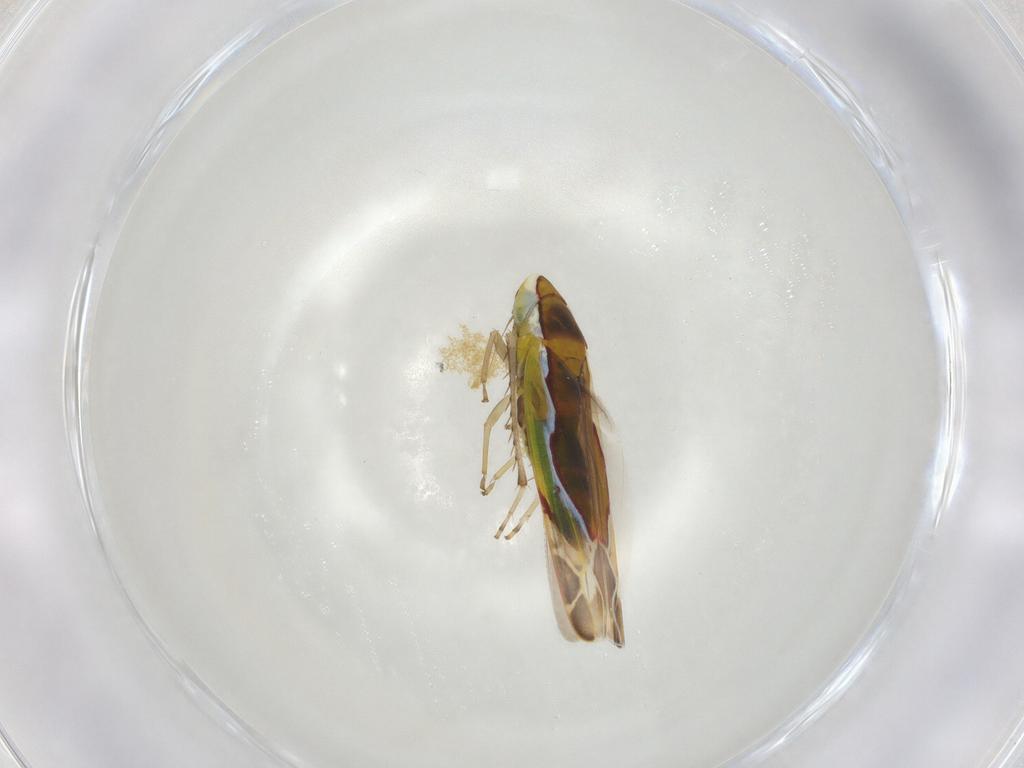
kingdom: Animalia
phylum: Arthropoda
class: Insecta
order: Hemiptera
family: Cicadellidae
